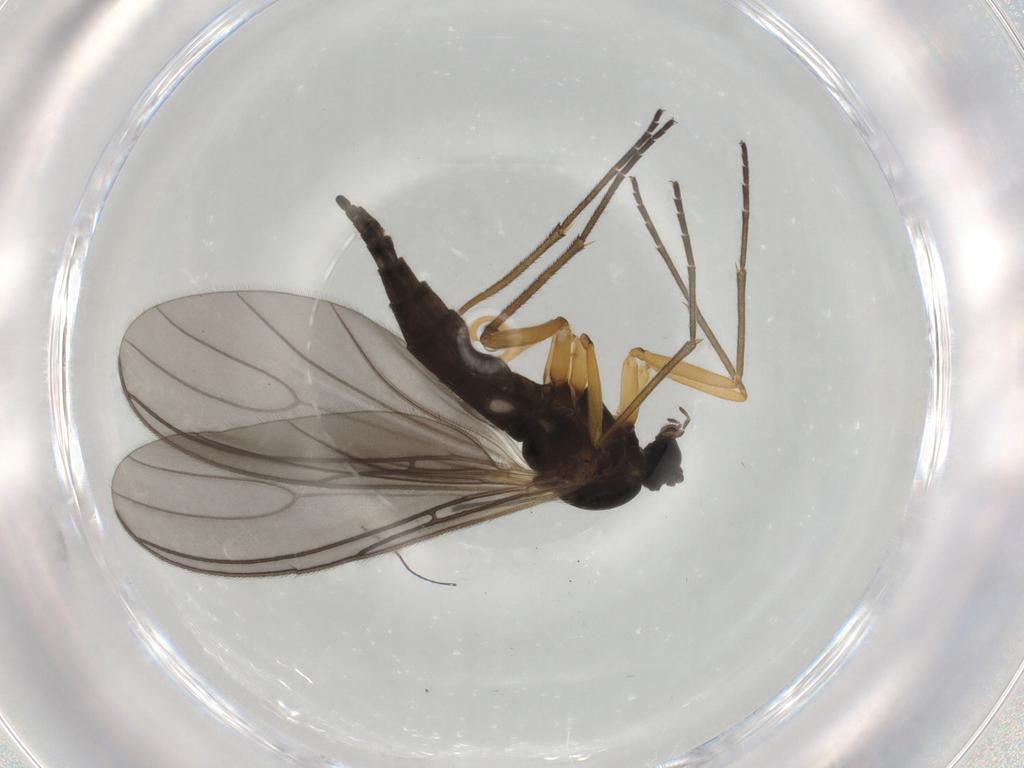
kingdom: Animalia
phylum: Arthropoda
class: Insecta
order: Diptera
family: Sciaridae
